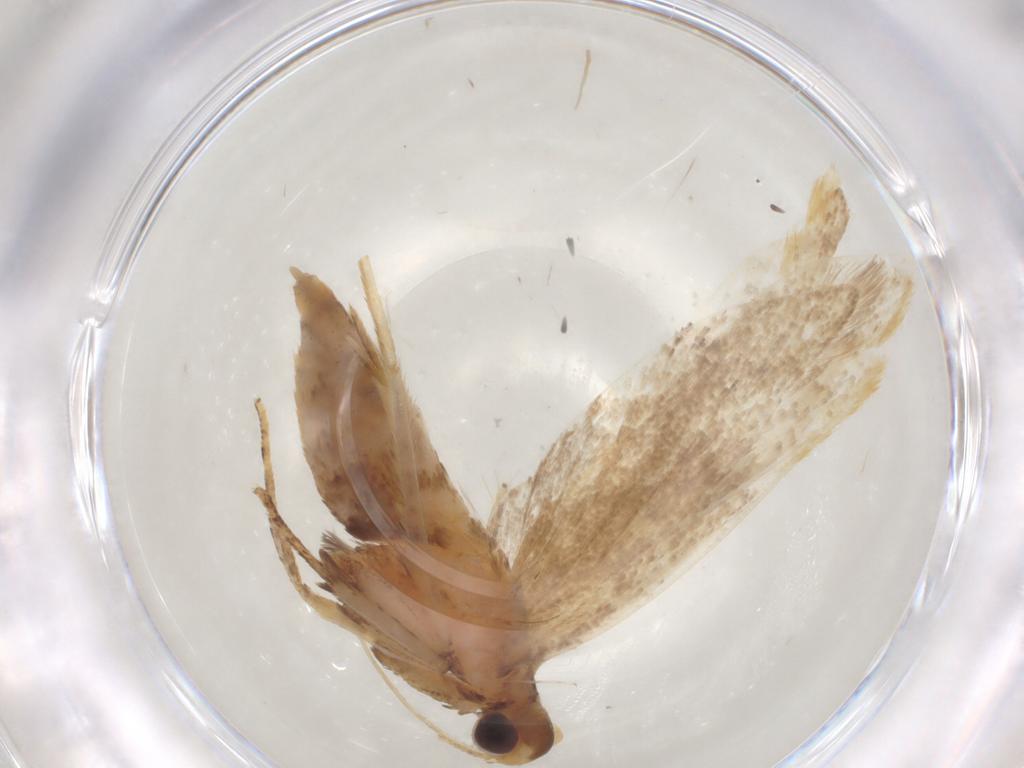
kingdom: Animalia
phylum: Arthropoda
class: Insecta
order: Lepidoptera
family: Lecithoceridae
